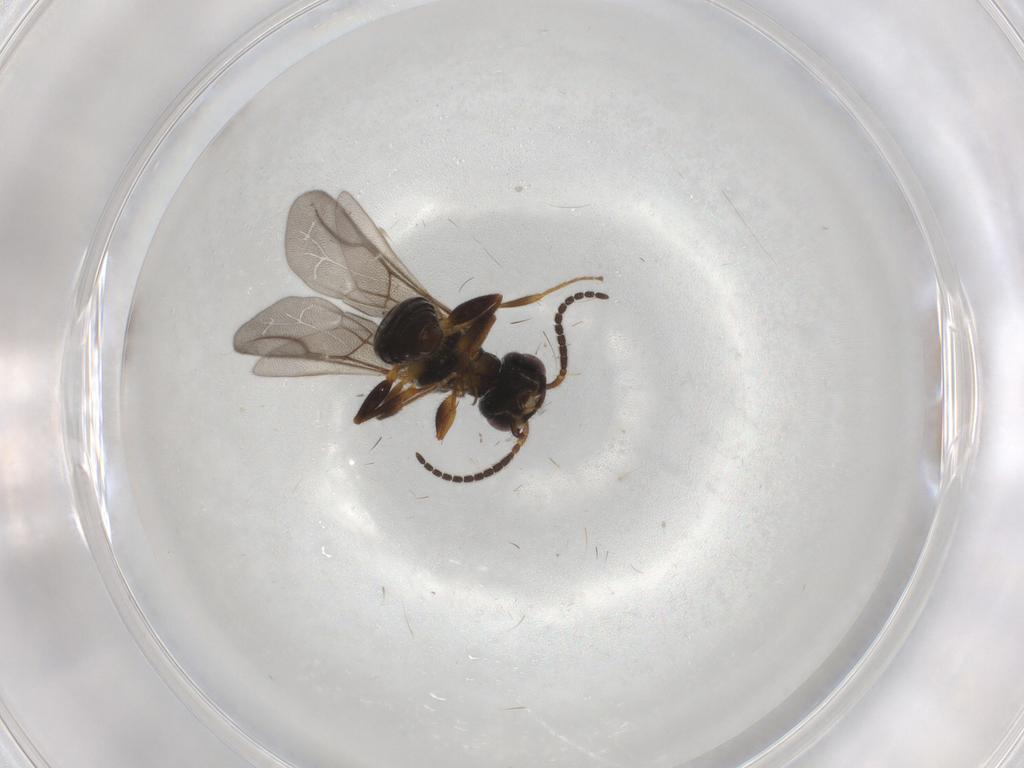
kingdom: Animalia
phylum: Arthropoda
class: Insecta
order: Hymenoptera
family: Bethylidae
